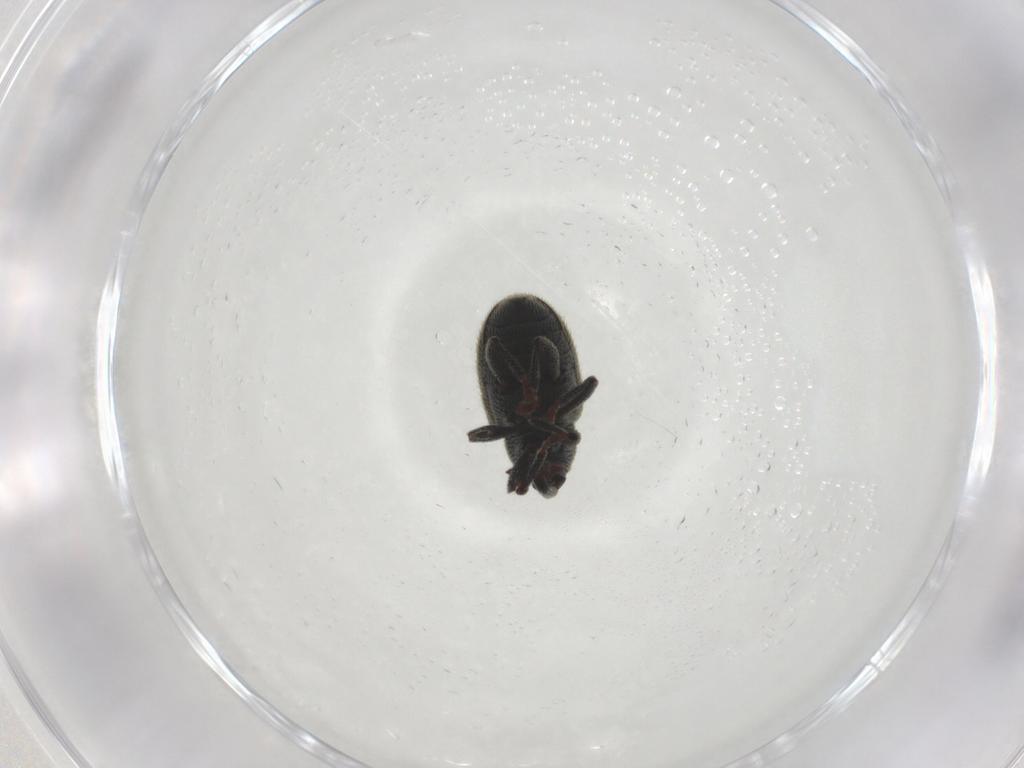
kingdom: Animalia
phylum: Arthropoda
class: Insecta
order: Coleoptera
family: Curculionidae
